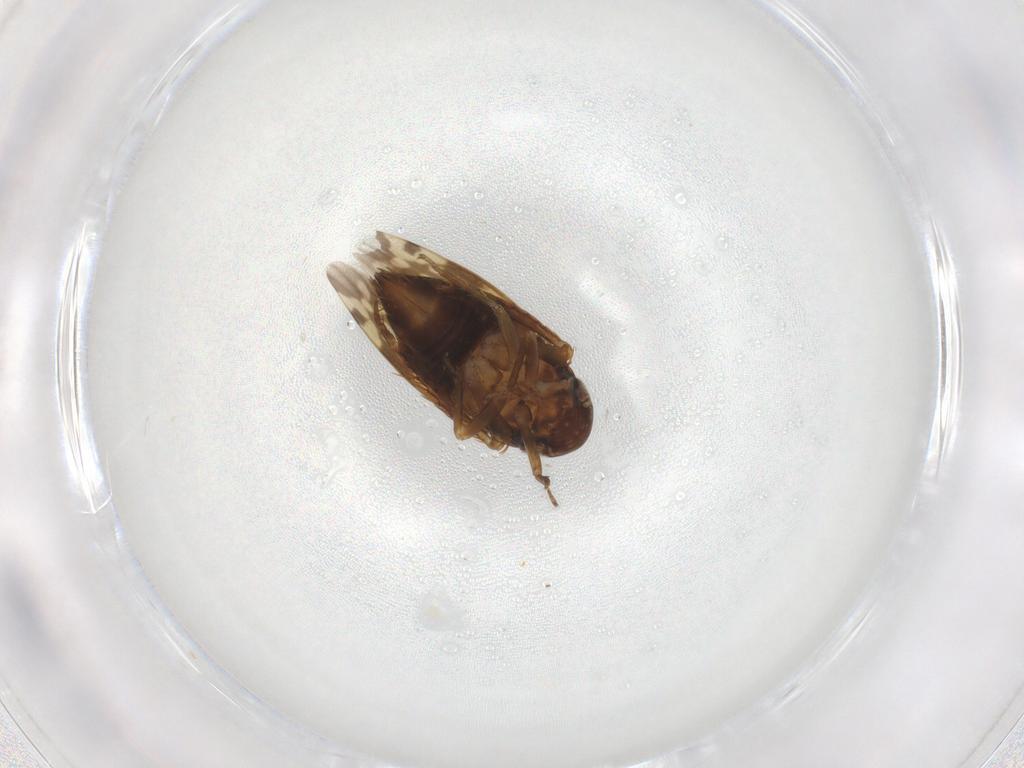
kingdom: Animalia
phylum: Arthropoda
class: Insecta
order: Hemiptera
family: Cicadellidae
